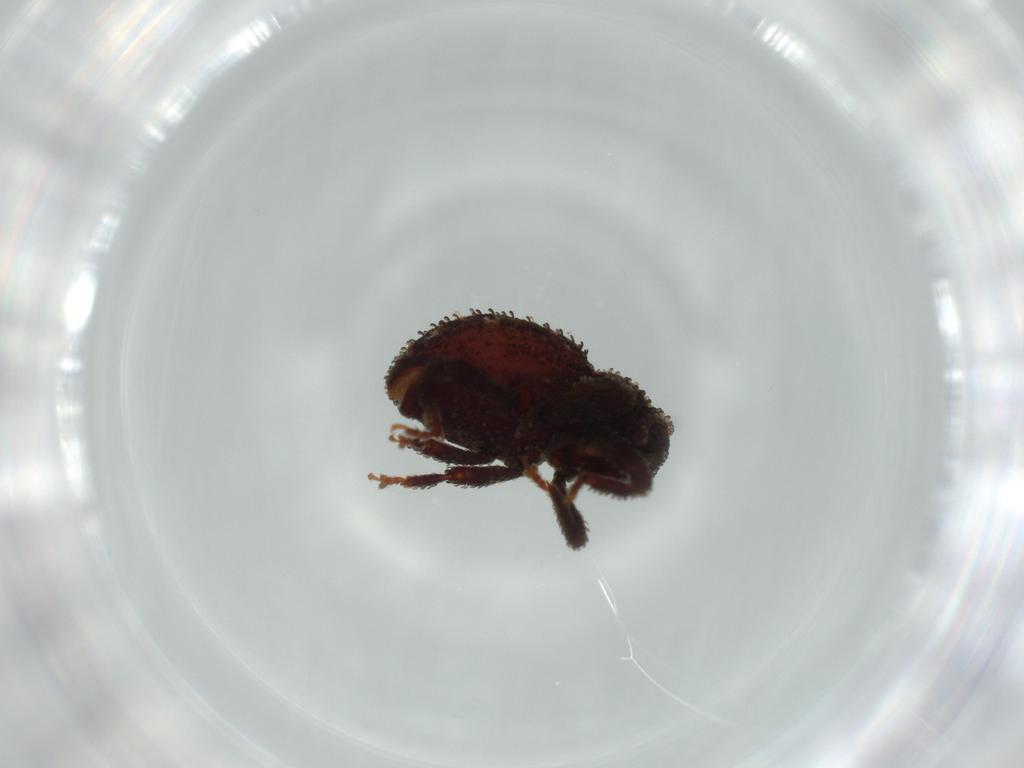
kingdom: Animalia
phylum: Arthropoda
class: Insecta
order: Coleoptera
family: Curculionidae
